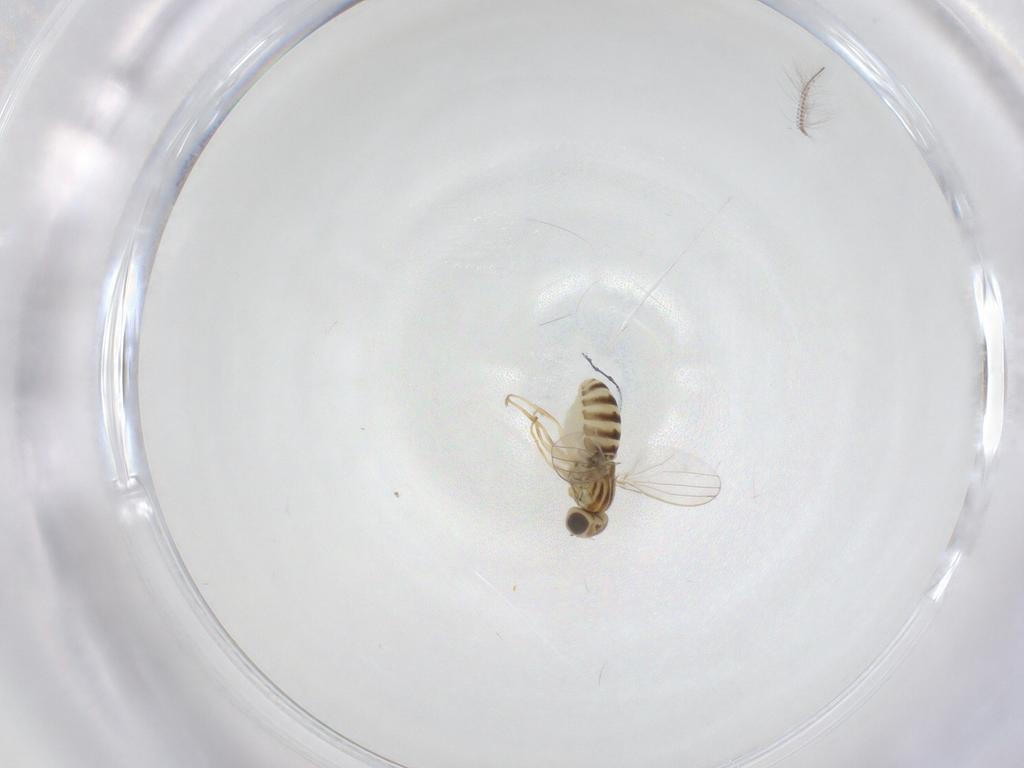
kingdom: Animalia
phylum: Arthropoda
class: Insecta
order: Diptera
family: Chyromyidae
